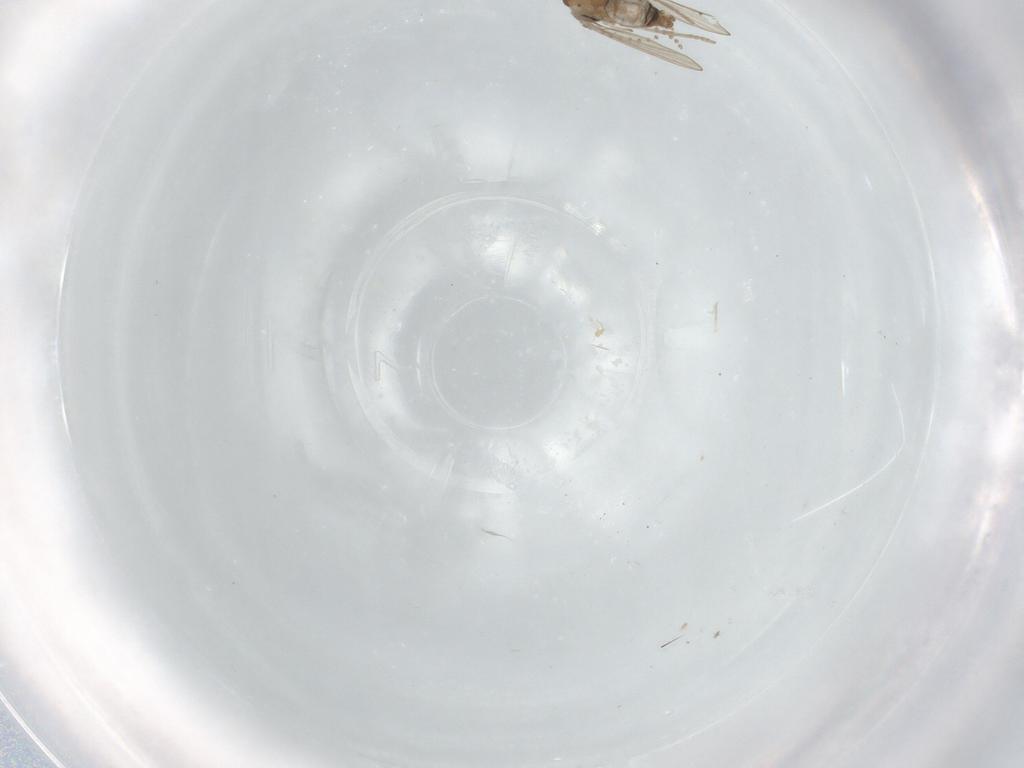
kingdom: Animalia
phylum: Arthropoda
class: Insecta
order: Diptera
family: Psychodidae
